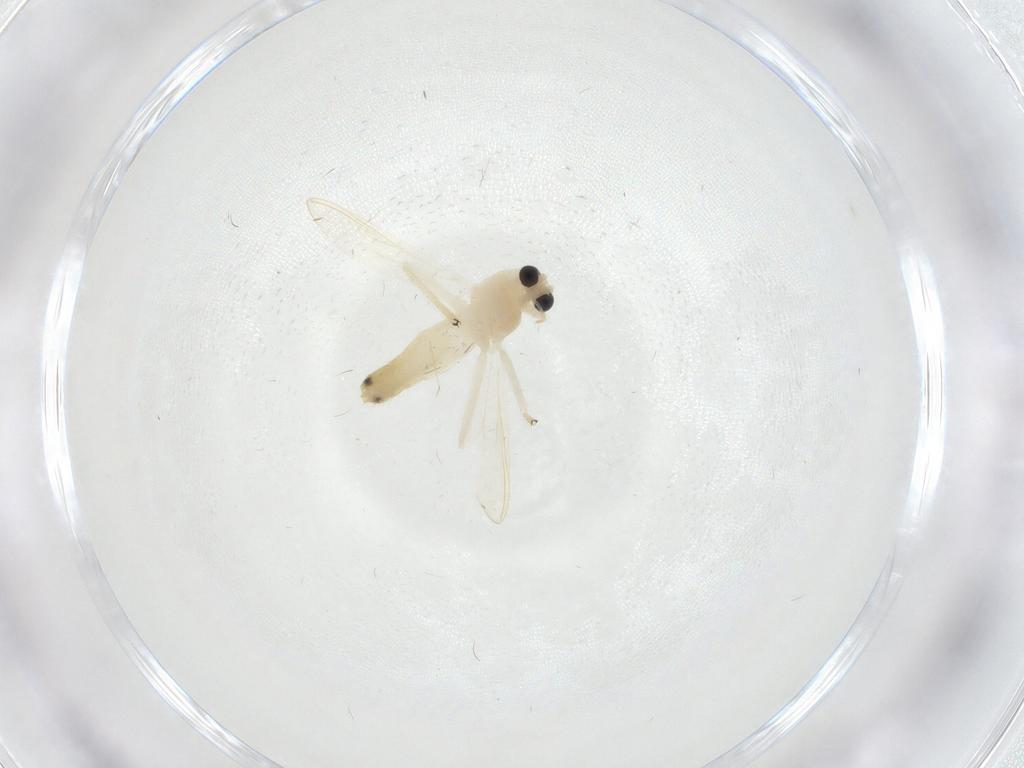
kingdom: Animalia
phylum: Arthropoda
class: Insecta
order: Diptera
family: Chironomidae
